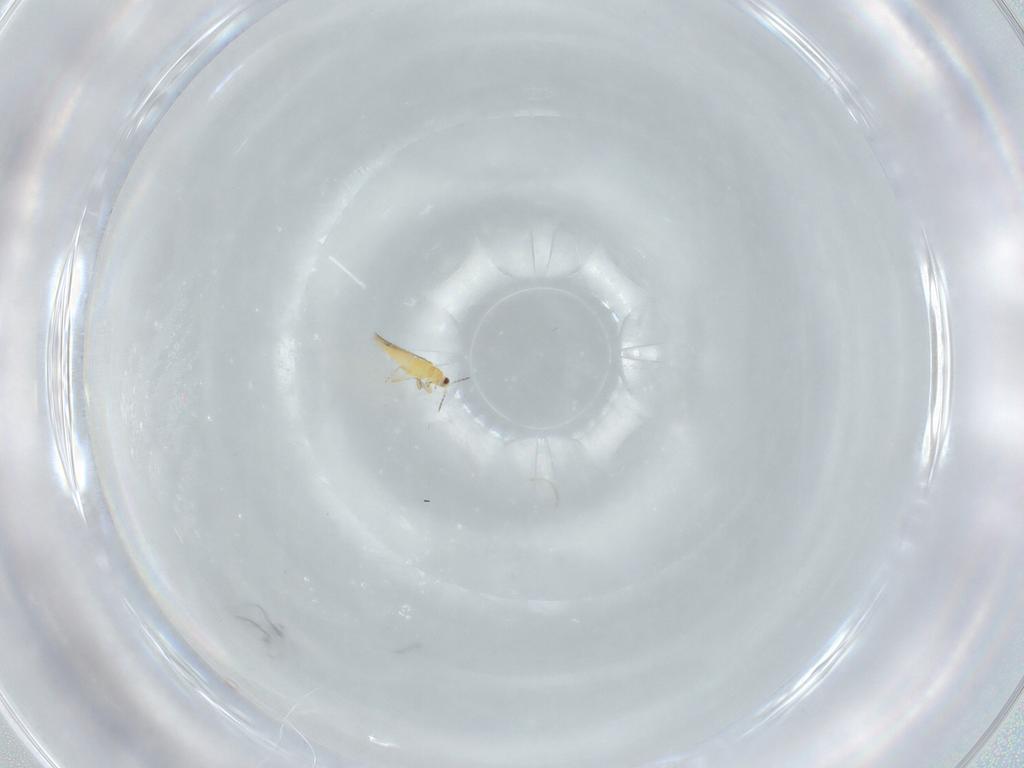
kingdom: Animalia
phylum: Arthropoda
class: Insecta
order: Thysanoptera
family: Thripidae
